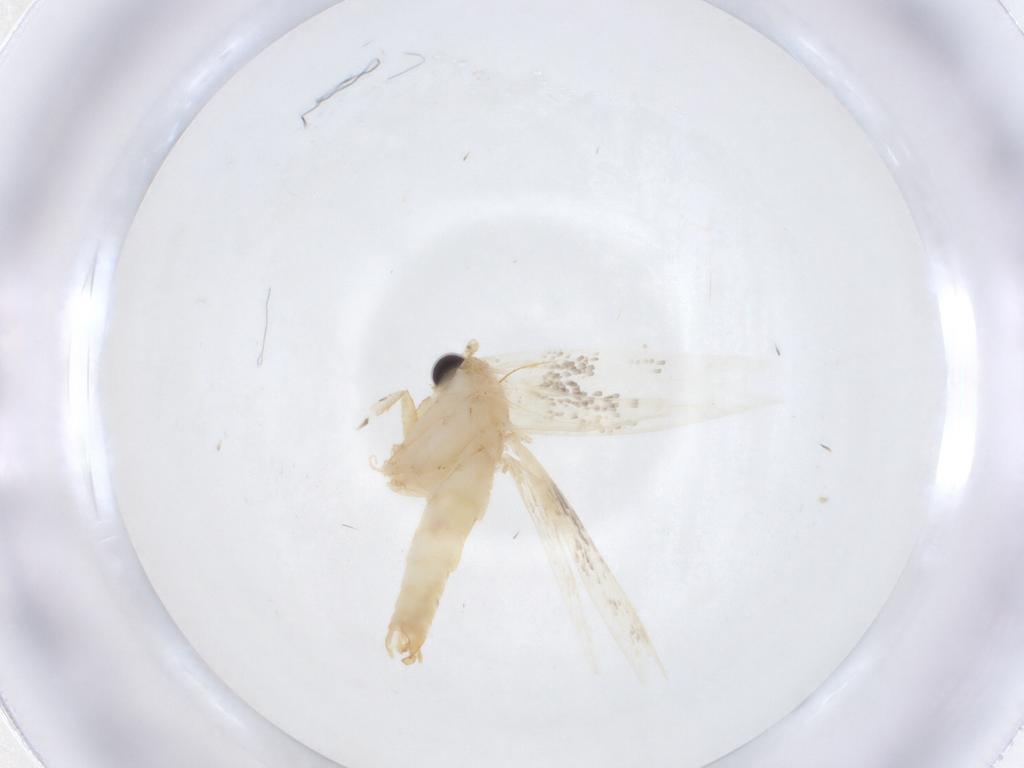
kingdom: Animalia
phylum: Arthropoda
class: Insecta
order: Lepidoptera
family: Erebidae
